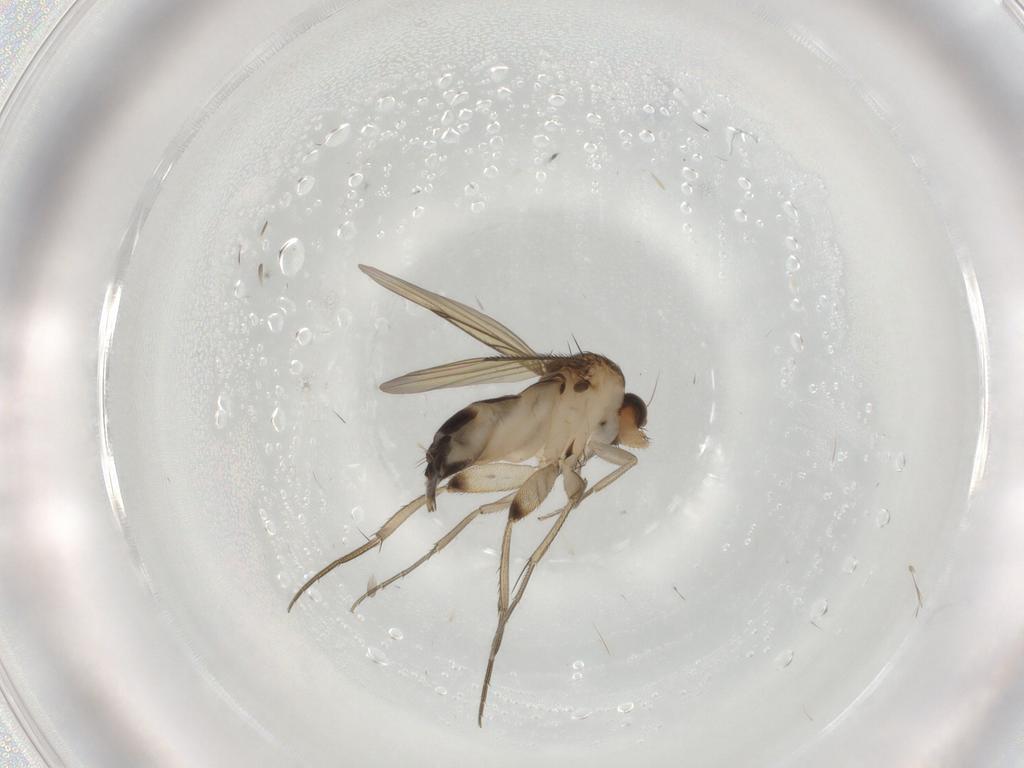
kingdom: Animalia
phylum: Arthropoda
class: Insecta
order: Diptera
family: Phoridae
